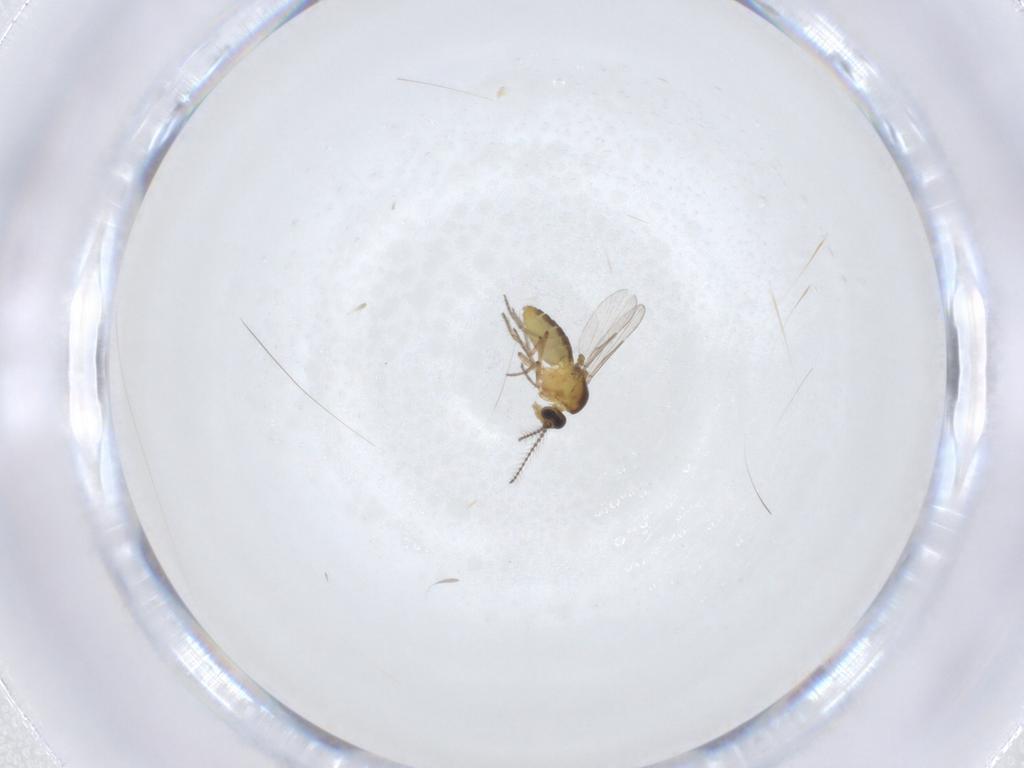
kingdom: Animalia
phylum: Arthropoda
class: Insecta
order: Diptera
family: Ceratopogonidae
